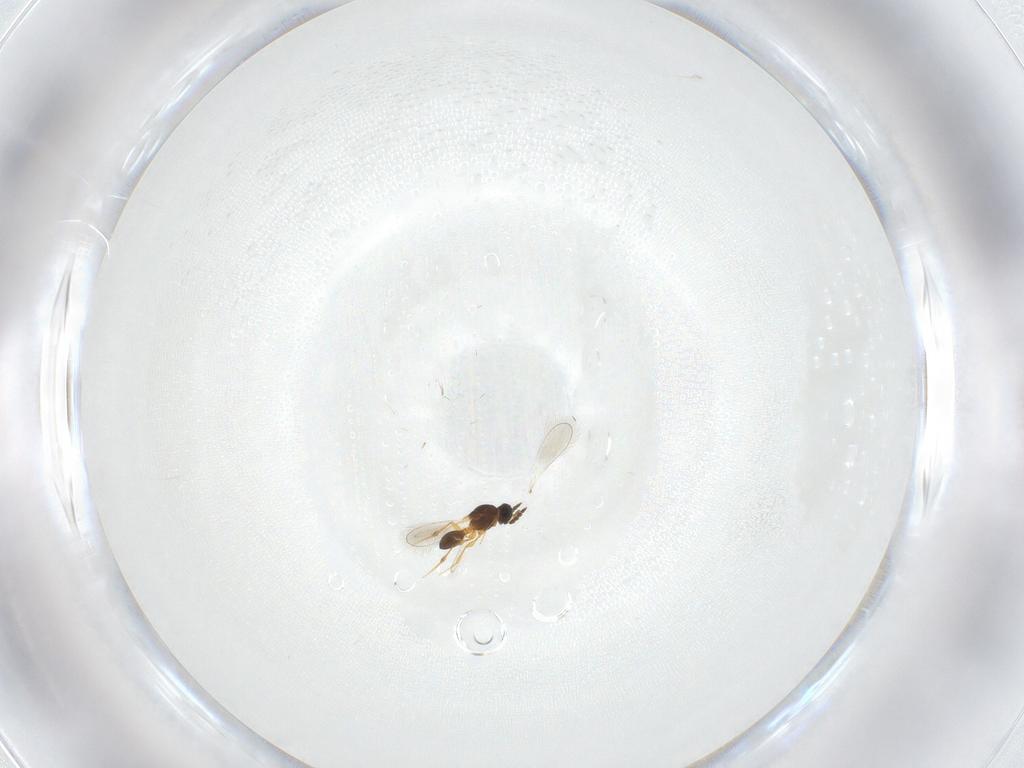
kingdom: Animalia
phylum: Arthropoda
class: Insecta
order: Hymenoptera
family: Platygastridae
